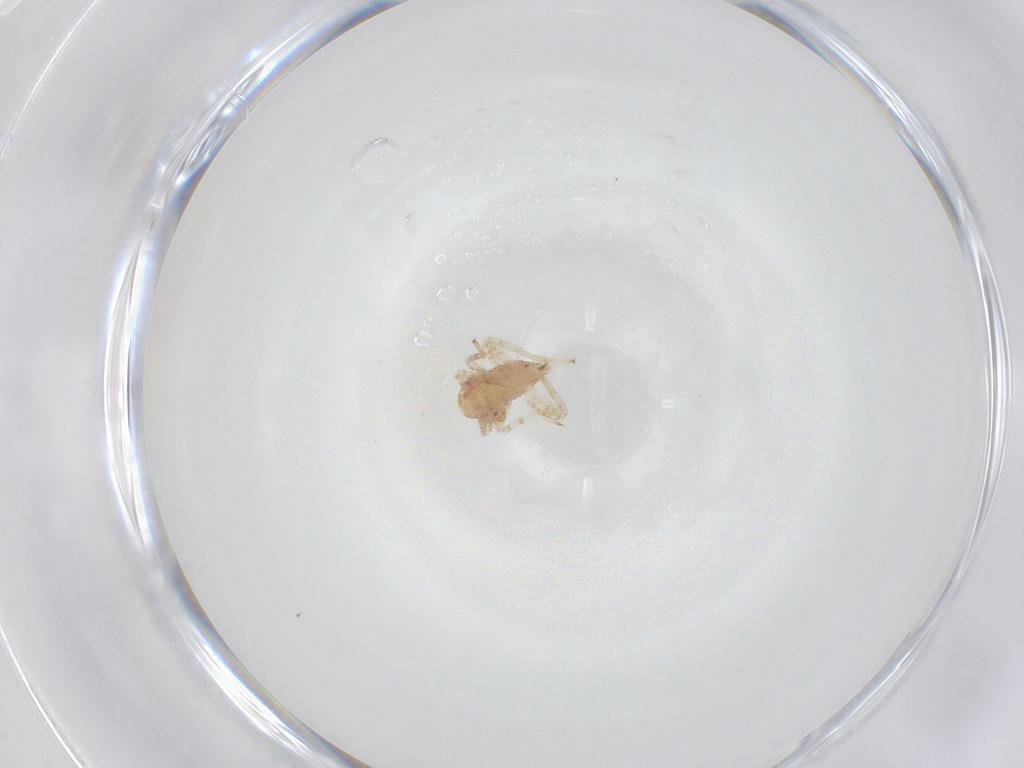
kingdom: Animalia
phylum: Arthropoda
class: Insecta
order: Hemiptera
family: Miridae
